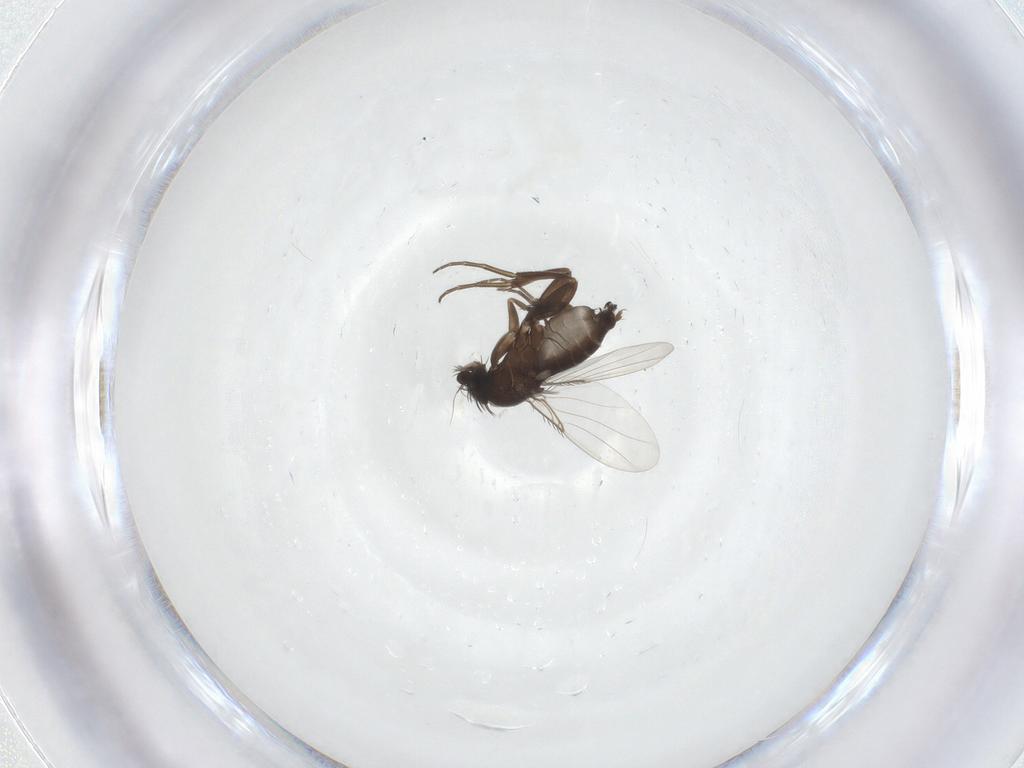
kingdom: Animalia
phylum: Arthropoda
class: Insecta
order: Diptera
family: Phoridae
